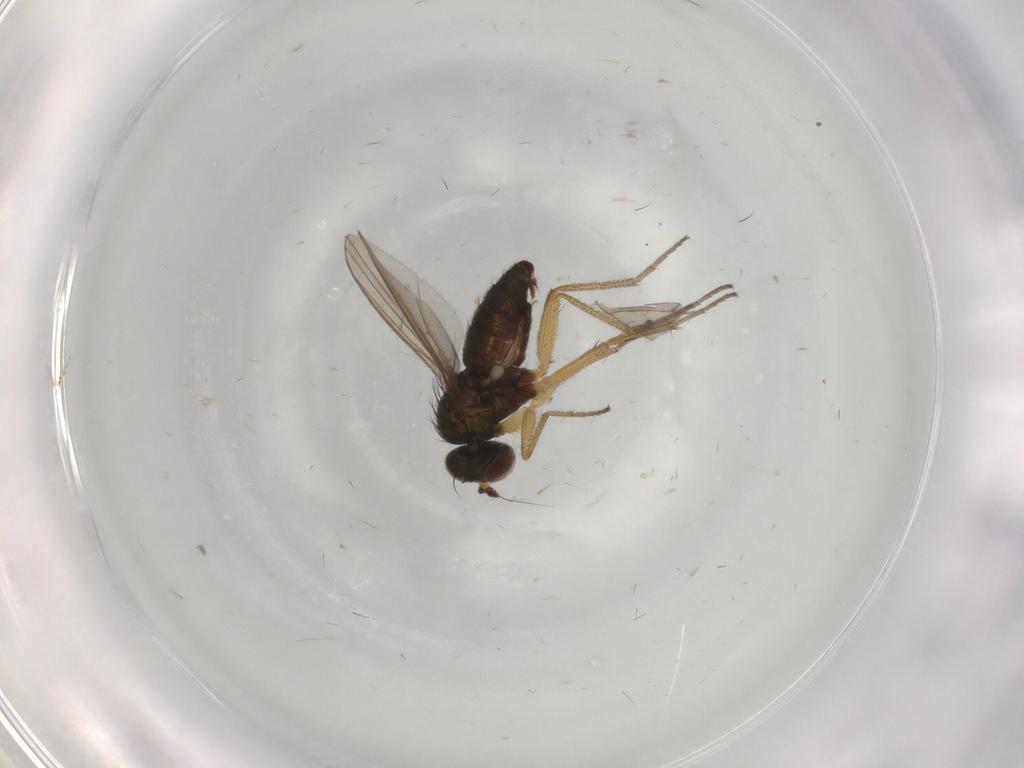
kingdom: Animalia
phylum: Arthropoda
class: Insecta
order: Diptera
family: Dolichopodidae
